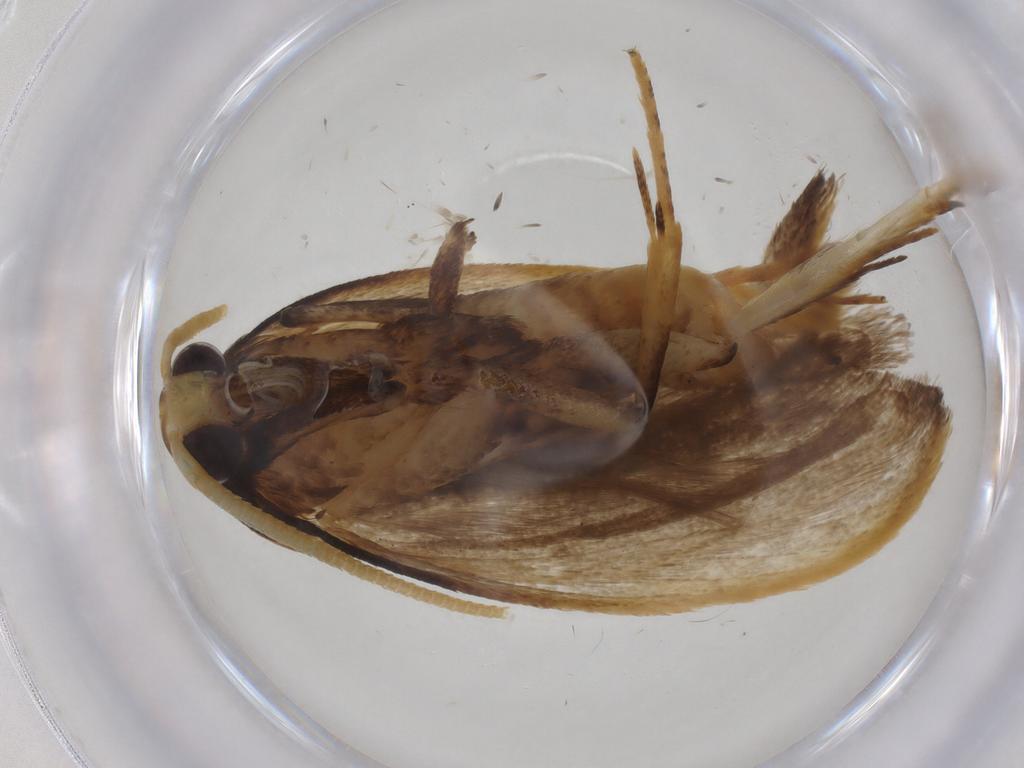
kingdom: Animalia
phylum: Arthropoda
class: Insecta
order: Lepidoptera
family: Lecithoceridae
